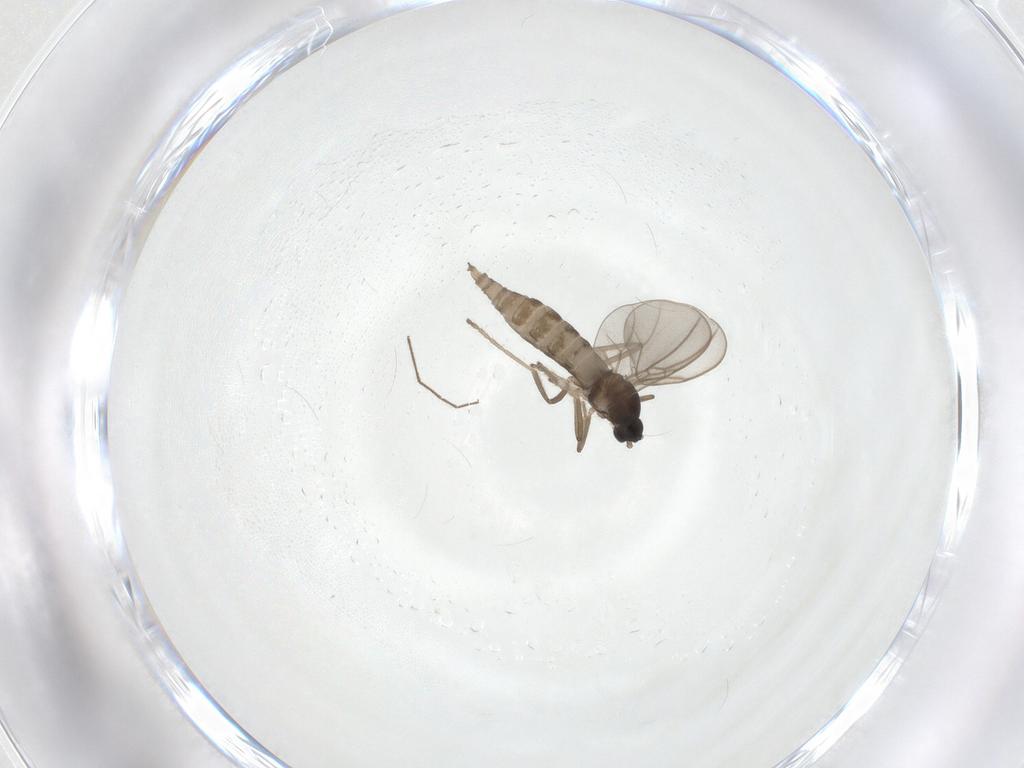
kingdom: Animalia
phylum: Arthropoda
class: Insecta
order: Diptera
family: Cecidomyiidae
